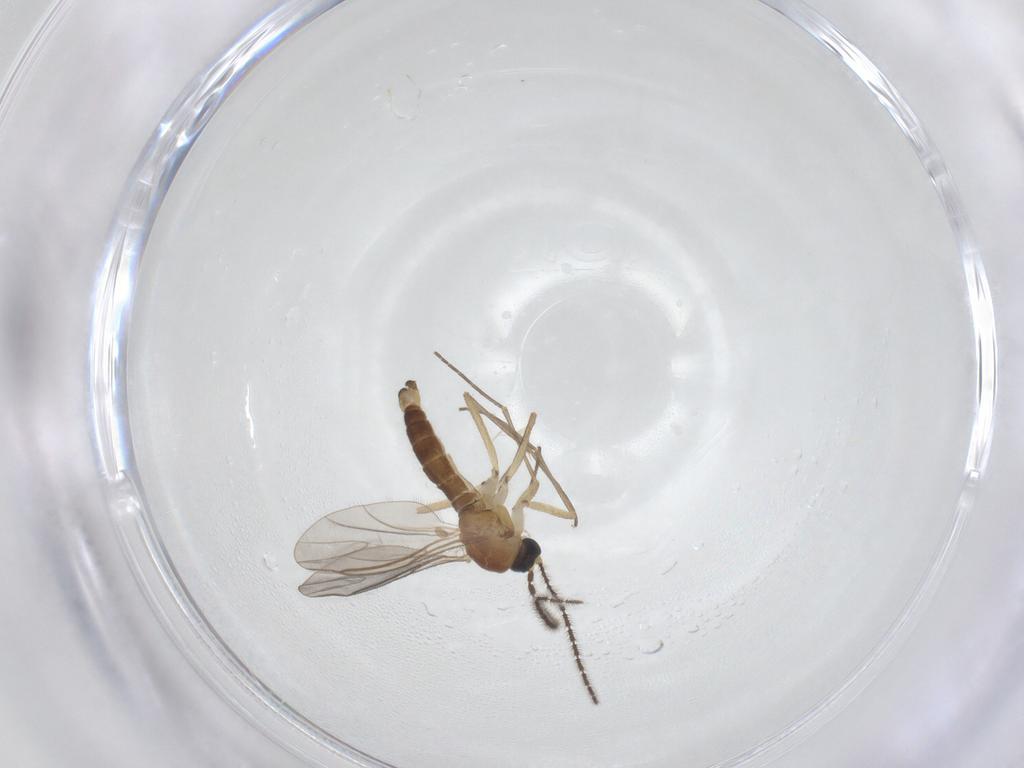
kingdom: Animalia
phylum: Arthropoda
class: Insecta
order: Diptera
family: Sciaridae
